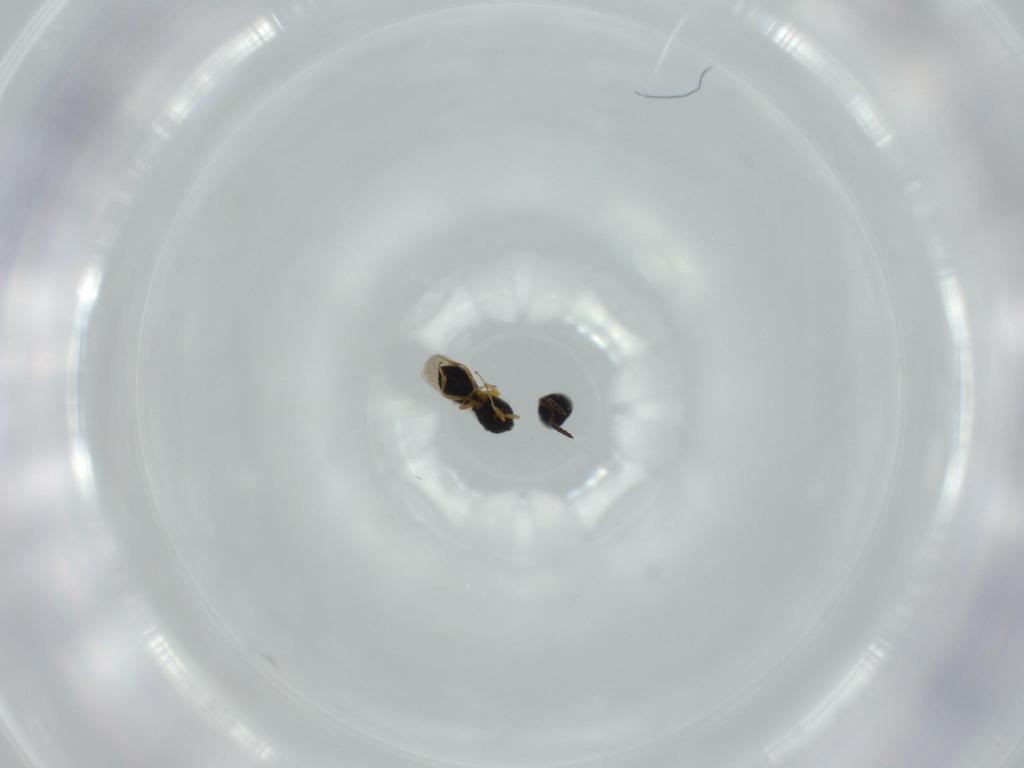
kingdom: Animalia
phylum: Arthropoda
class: Insecta
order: Hymenoptera
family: Scelionidae
